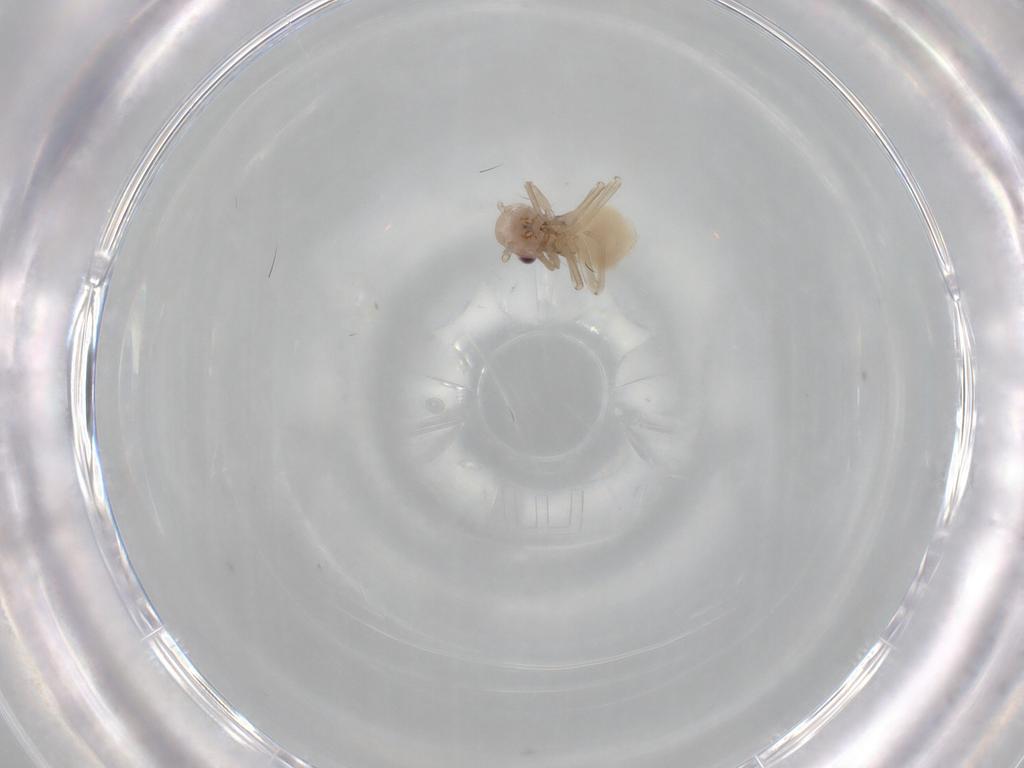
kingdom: Animalia
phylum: Arthropoda
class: Insecta
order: Psocodea
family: Stenopsocidae
